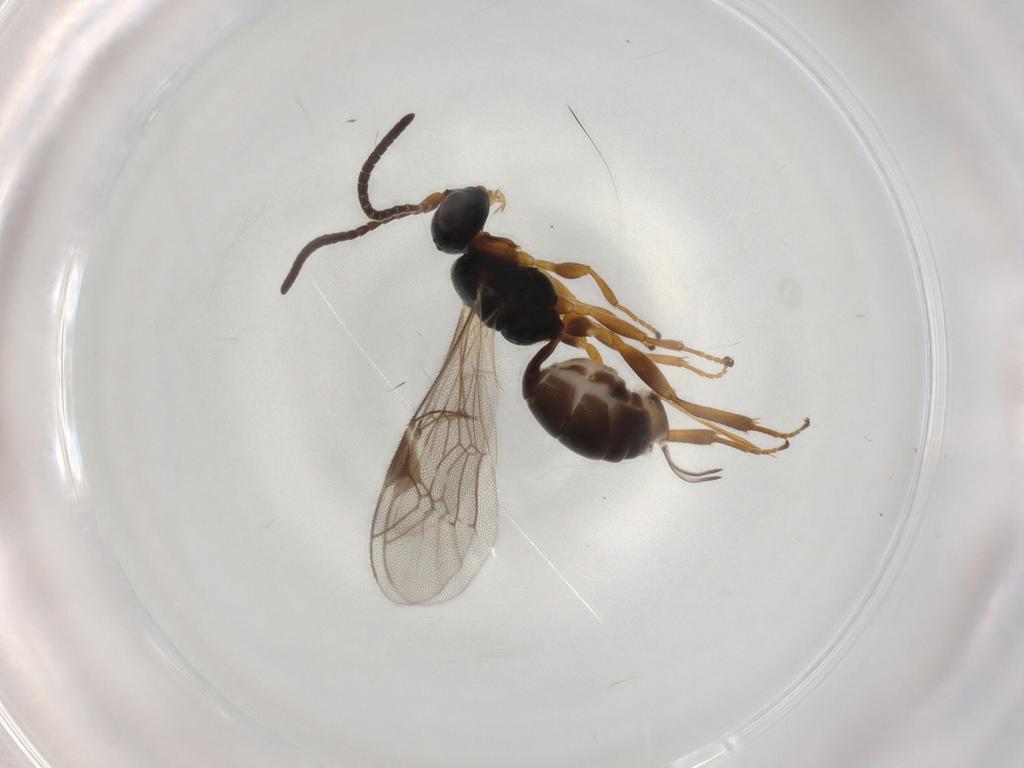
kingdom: Animalia
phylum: Arthropoda
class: Insecta
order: Hymenoptera
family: Ichneumonidae
